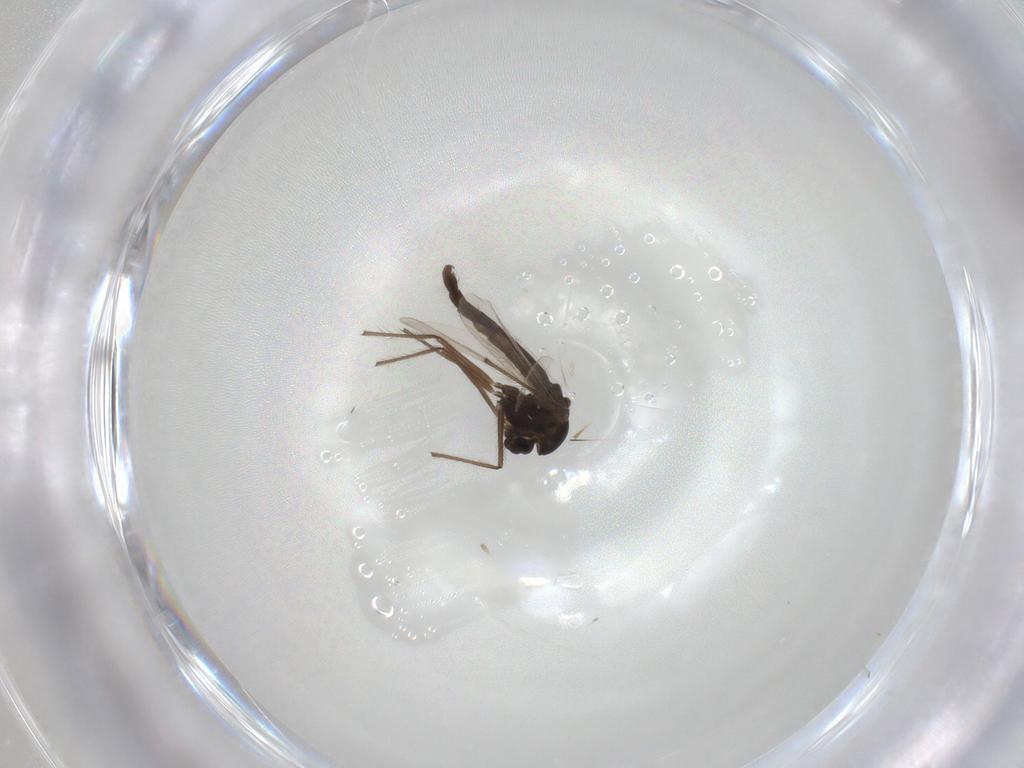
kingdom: Animalia
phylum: Arthropoda
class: Insecta
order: Diptera
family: Chironomidae
